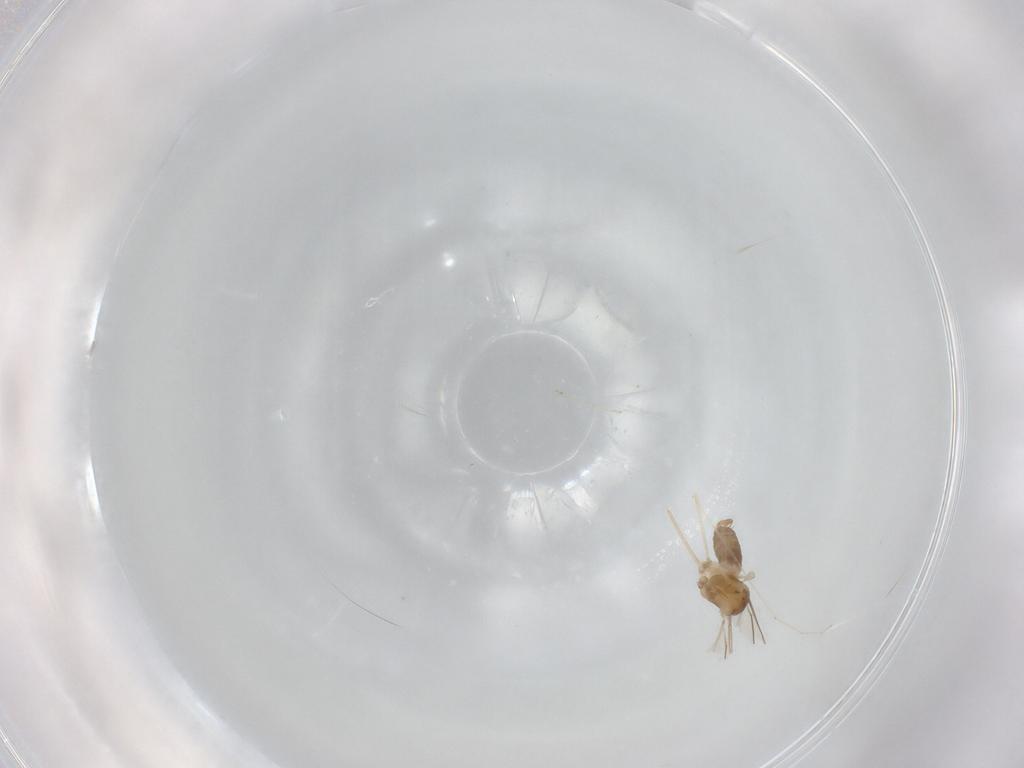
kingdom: Animalia
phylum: Arthropoda
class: Insecta
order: Diptera
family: Cecidomyiidae
